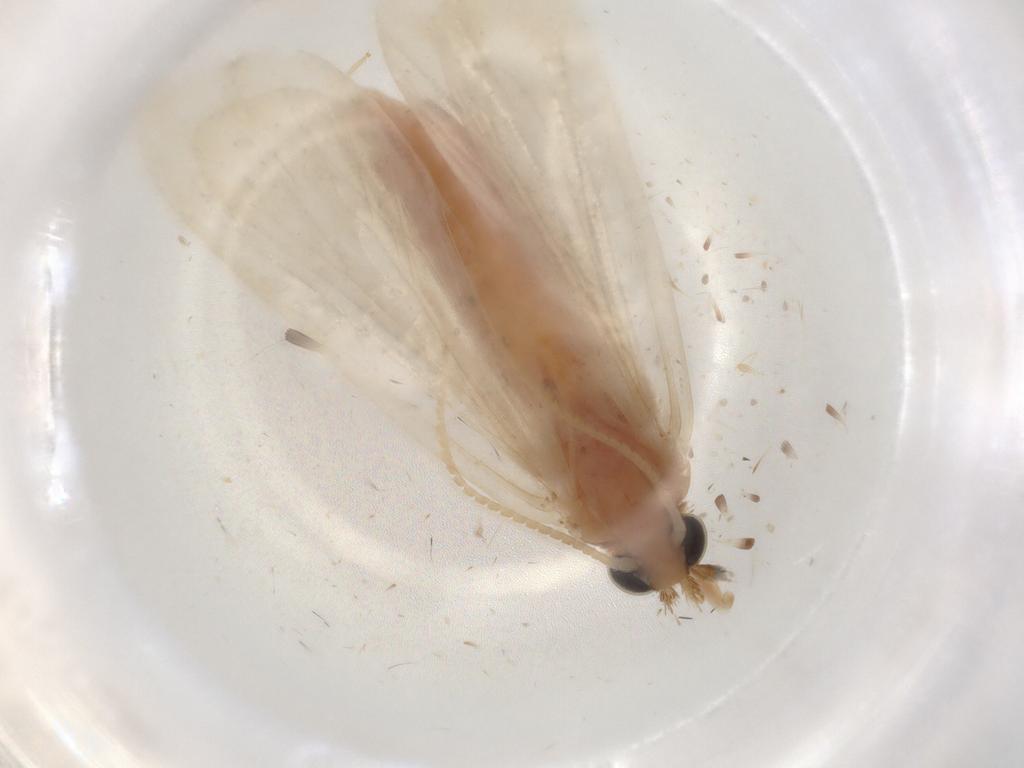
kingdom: Animalia
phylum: Arthropoda
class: Insecta
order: Lepidoptera
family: Crambidae
